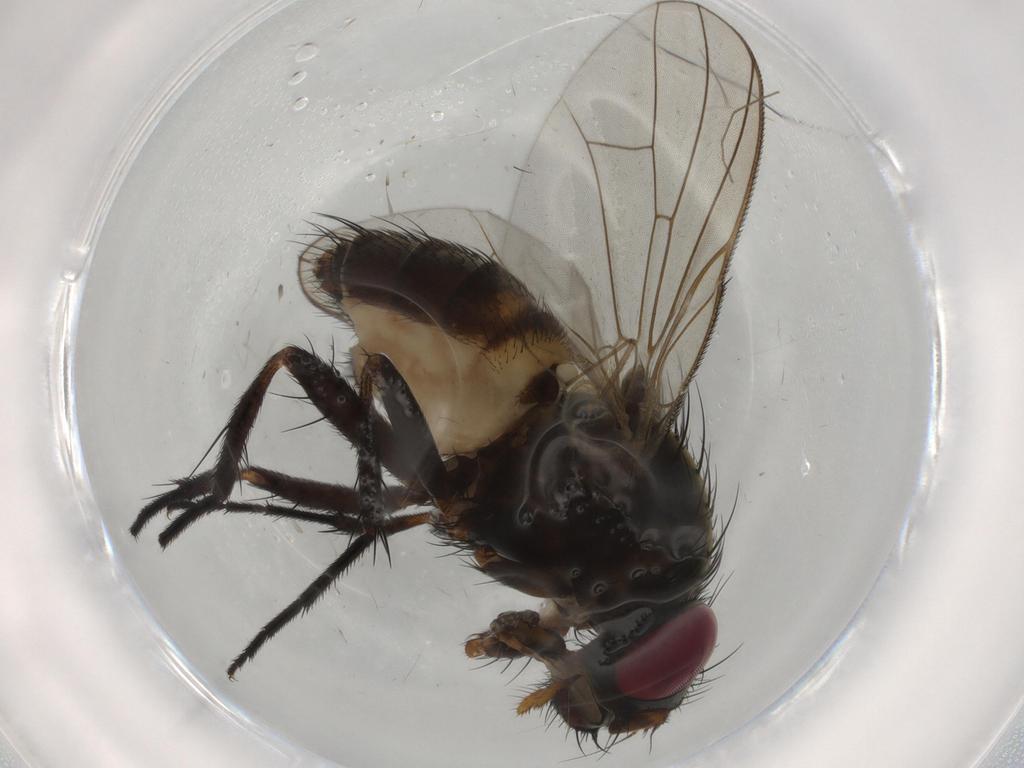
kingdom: Animalia
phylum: Arthropoda
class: Insecta
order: Diptera
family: Fannia
